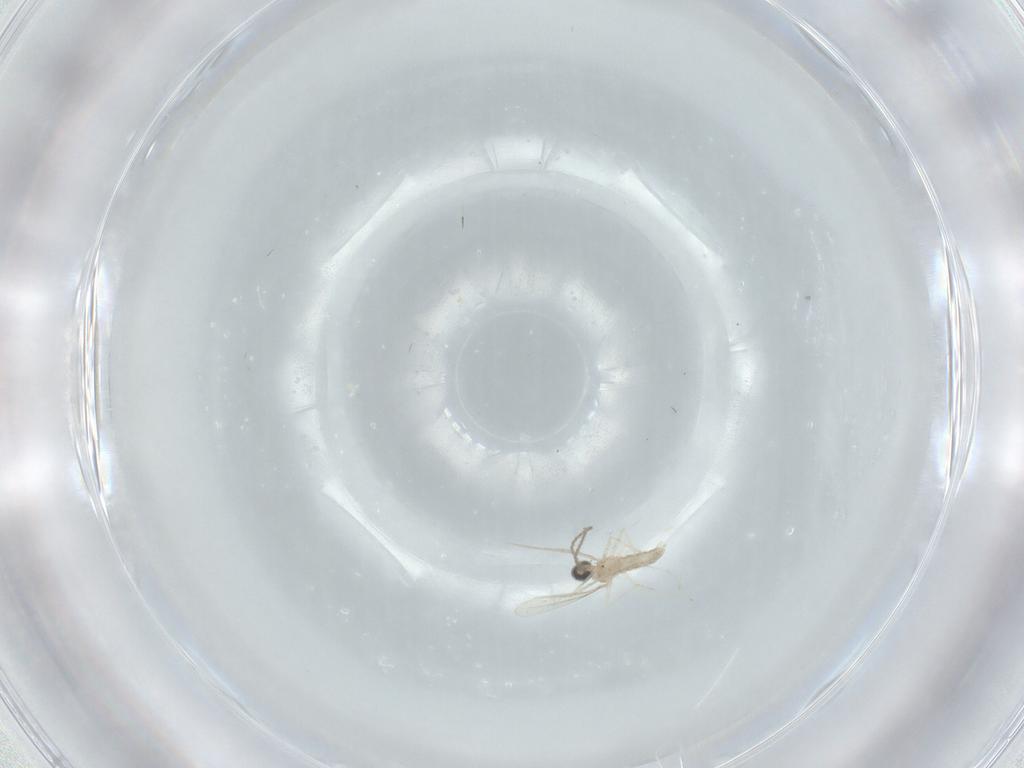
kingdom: Animalia
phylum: Arthropoda
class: Insecta
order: Diptera
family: Cecidomyiidae
